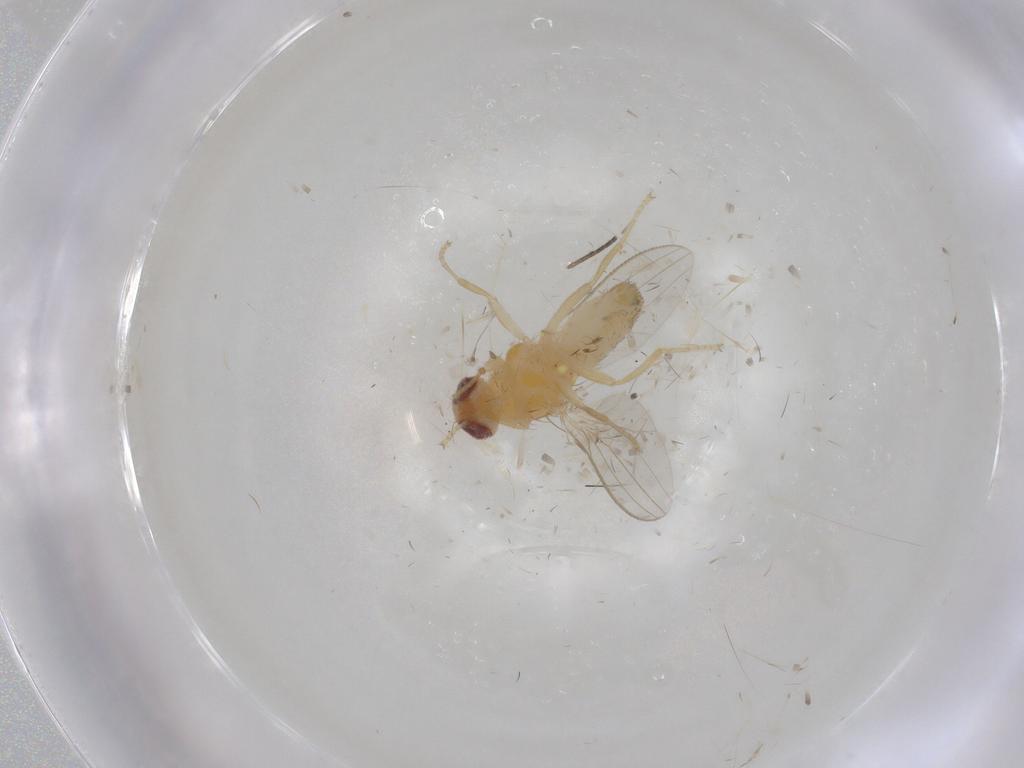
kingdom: Animalia
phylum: Arthropoda
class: Insecta
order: Diptera
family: Chyromyidae
